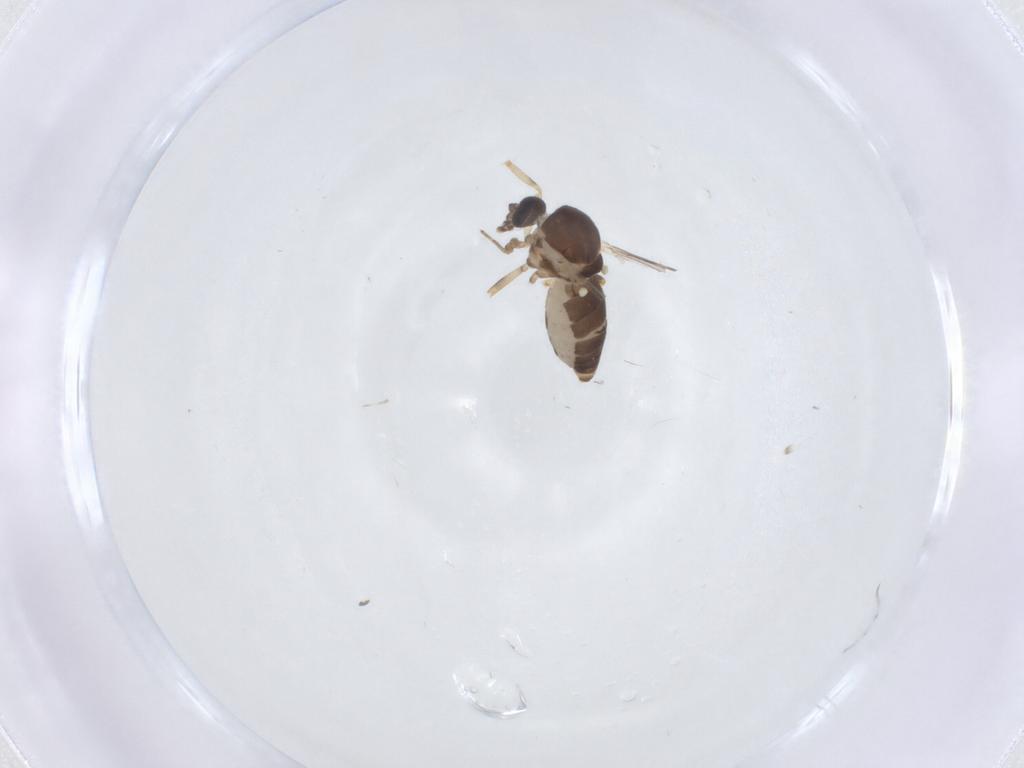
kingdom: Animalia
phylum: Arthropoda
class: Insecta
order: Diptera
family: Ceratopogonidae
